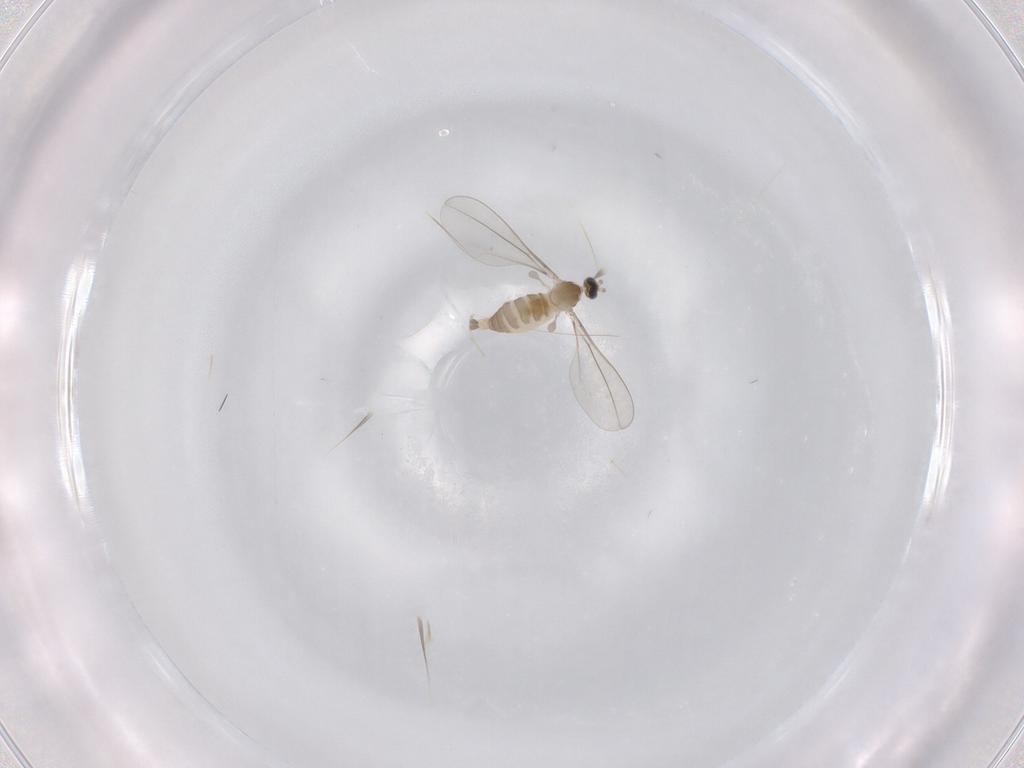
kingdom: Animalia
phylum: Arthropoda
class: Insecta
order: Diptera
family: Cecidomyiidae
